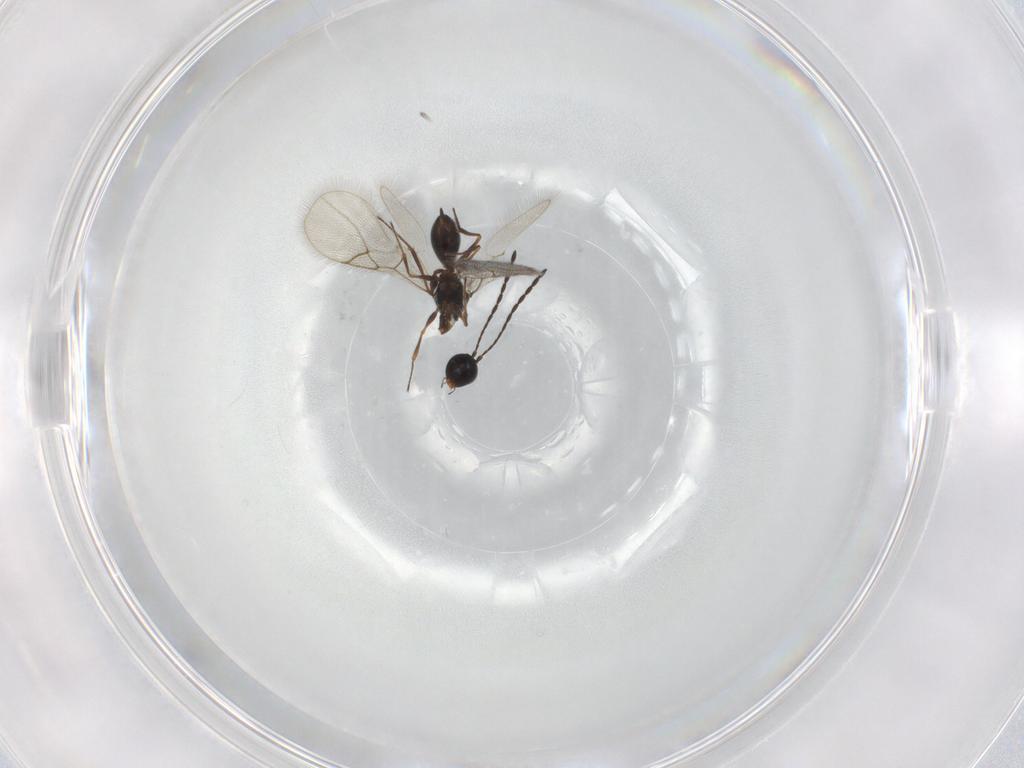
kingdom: Animalia
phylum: Arthropoda
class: Insecta
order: Hymenoptera
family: Figitidae
